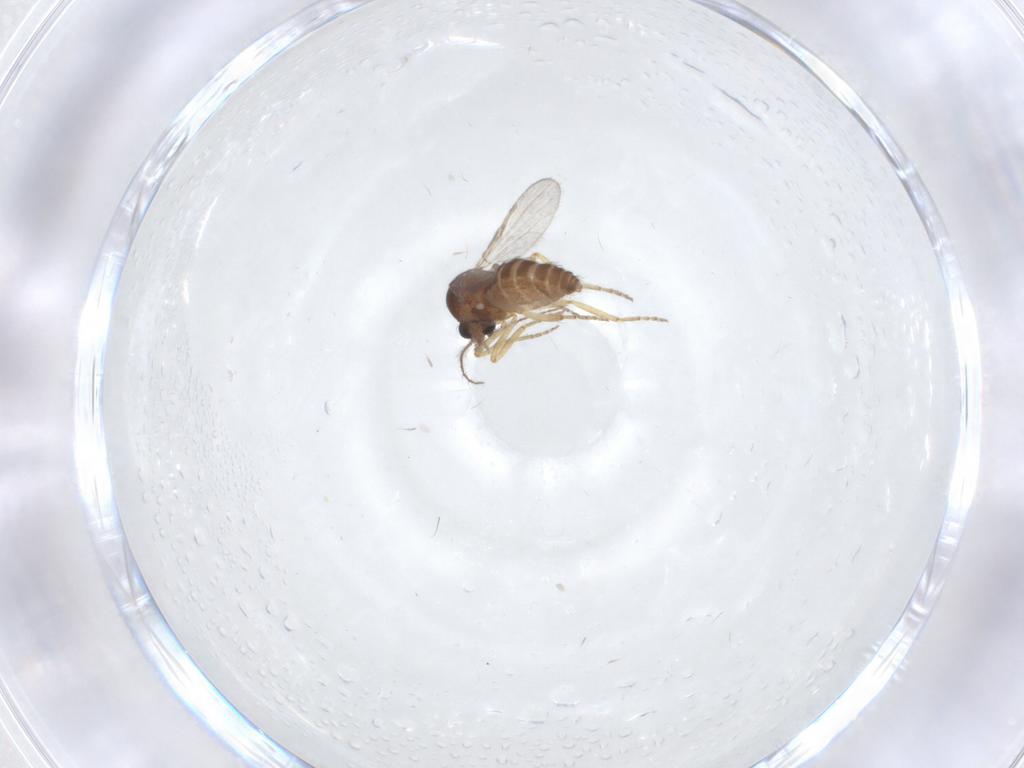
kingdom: Animalia
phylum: Arthropoda
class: Insecta
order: Diptera
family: Ceratopogonidae
